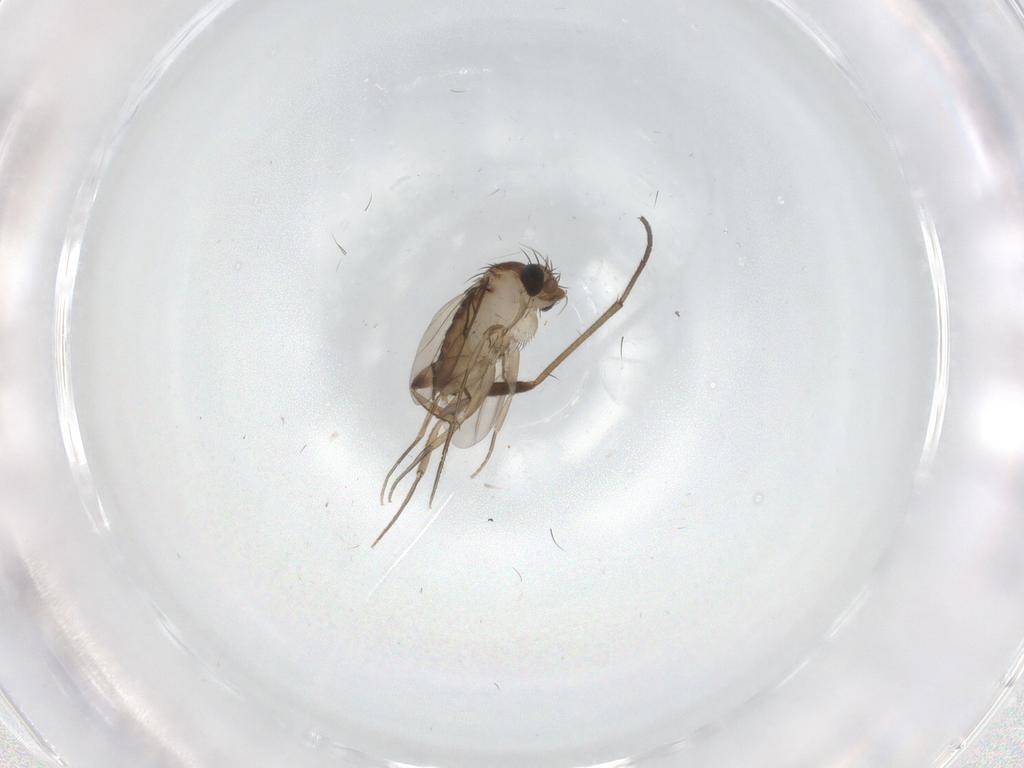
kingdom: Animalia
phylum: Arthropoda
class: Insecta
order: Diptera
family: Phoridae
